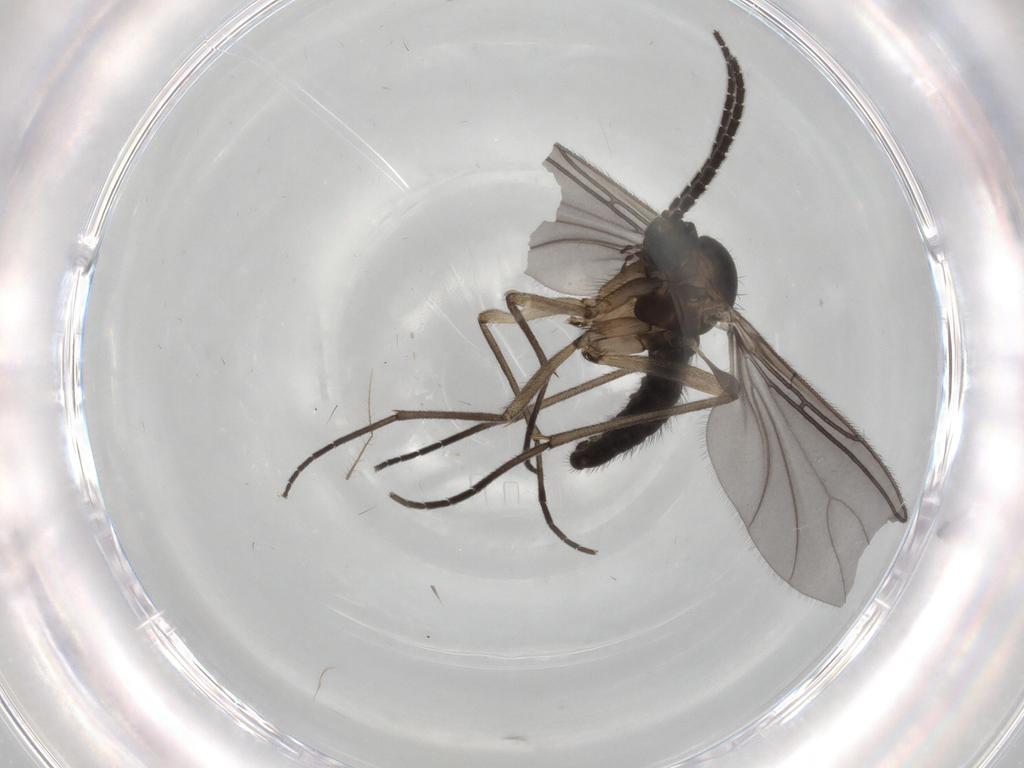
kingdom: Animalia
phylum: Arthropoda
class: Insecta
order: Diptera
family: Sciaridae
